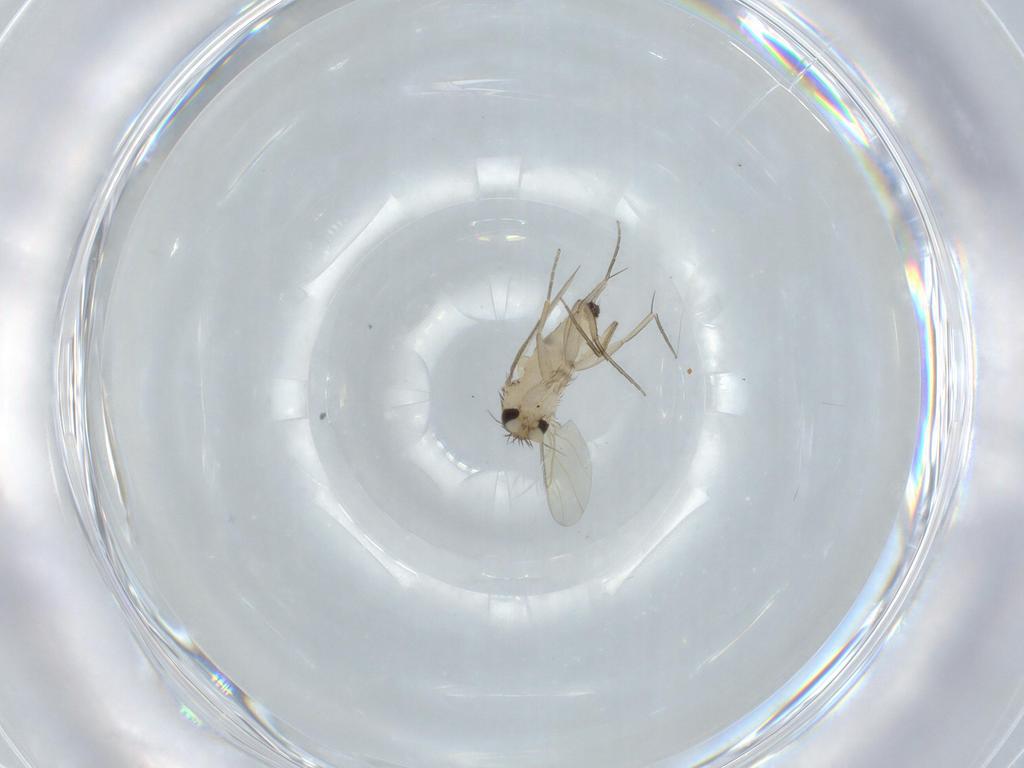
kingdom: Animalia
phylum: Arthropoda
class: Insecta
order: Diptera
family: Phoridae
